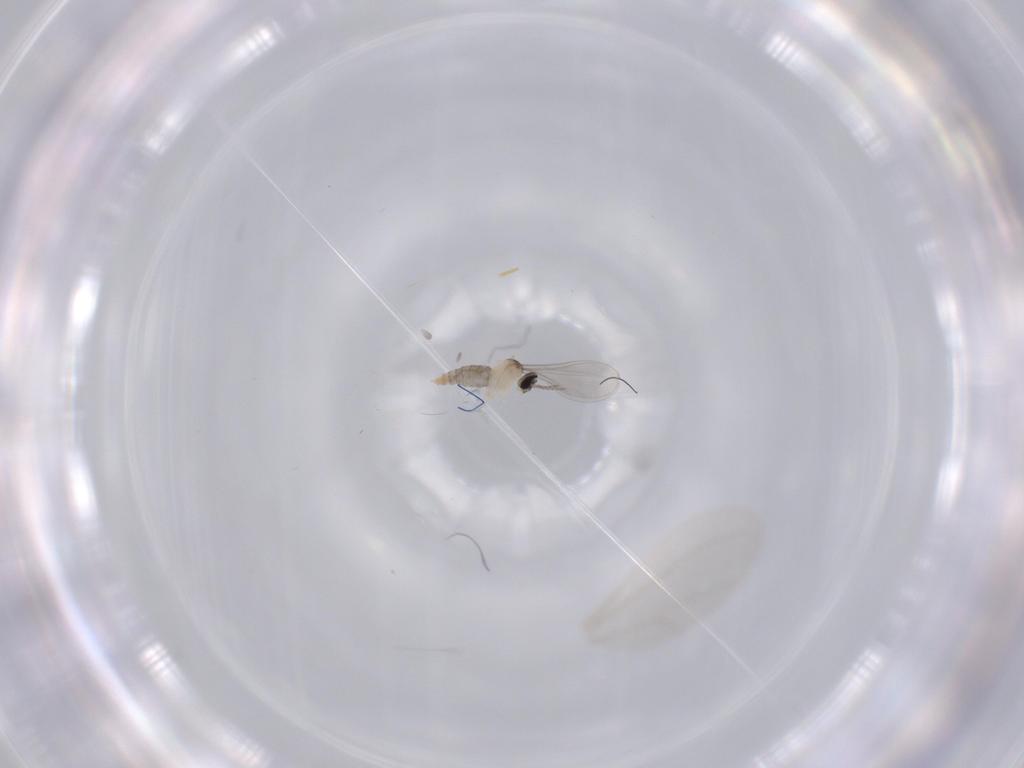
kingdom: Animalia
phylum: Arthropoda
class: Insecta
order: Diptera
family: Cecidomyiidae
